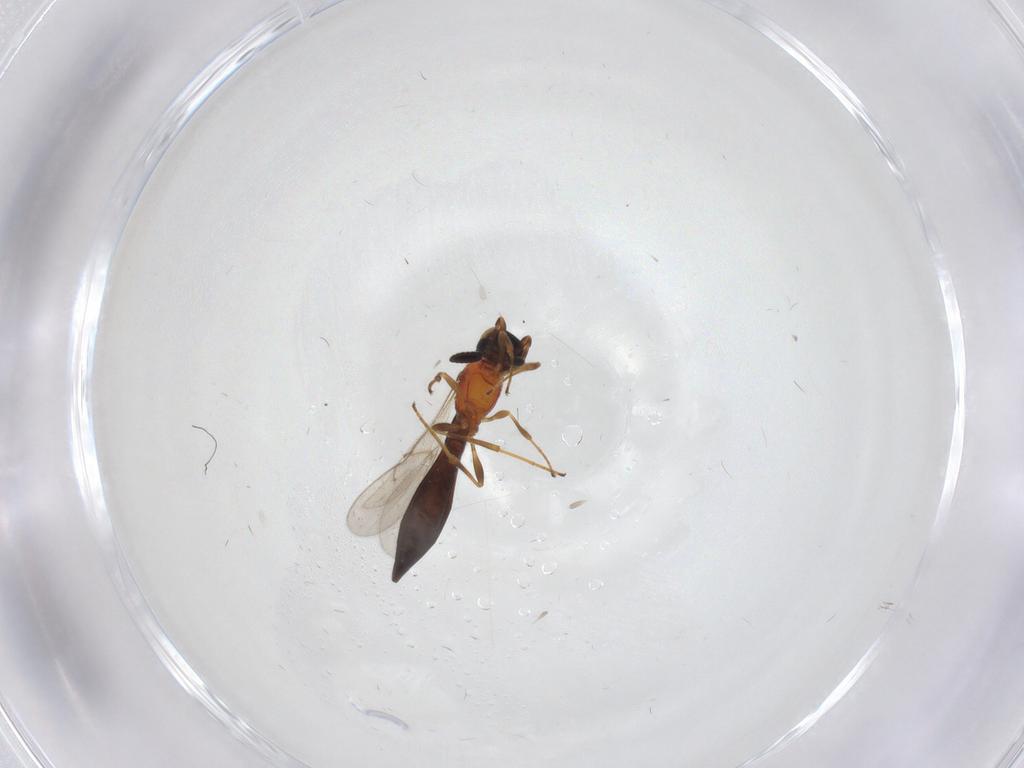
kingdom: Animalia
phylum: Arthropoda
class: Insecta
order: Hymenoptera
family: Scelionidae
